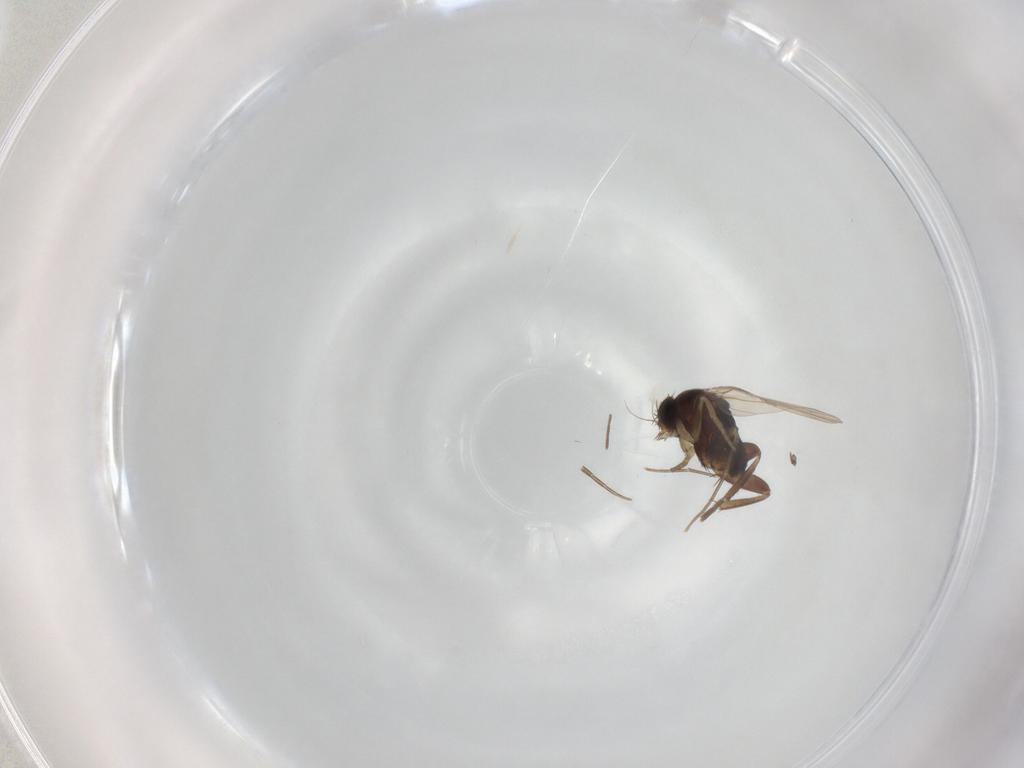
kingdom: Animalia
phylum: Arthropoda
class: Insecta
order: Diptera
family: Phoridae
